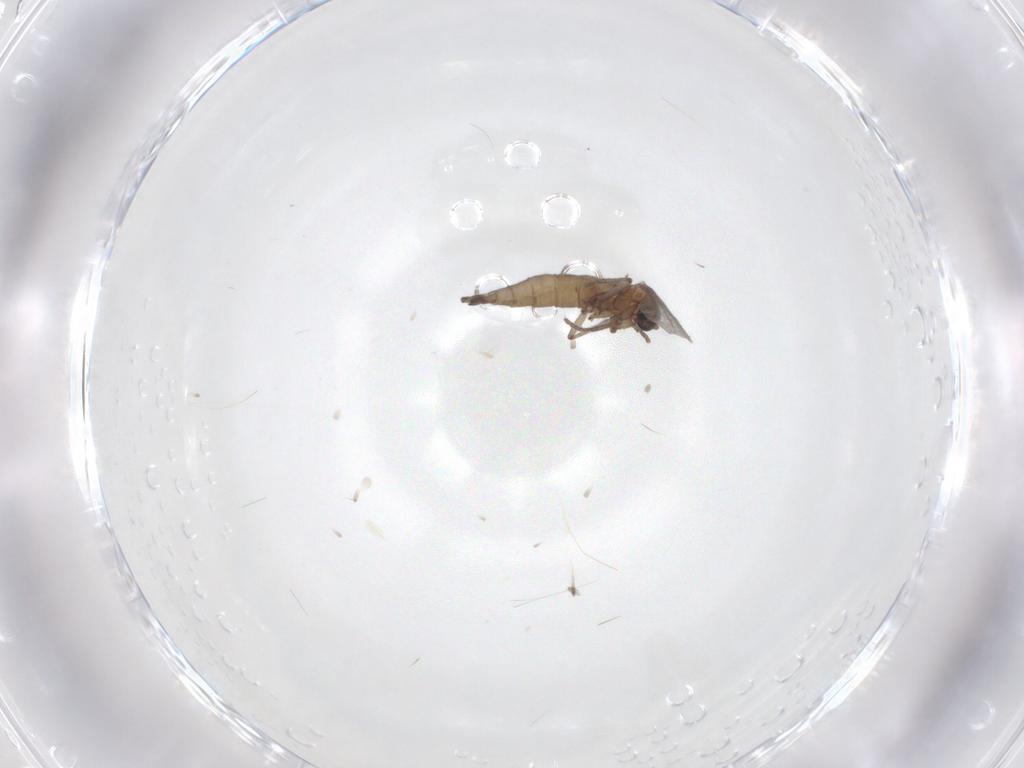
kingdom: Animalia
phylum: Arthropoda
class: Insecta
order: Diptera
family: Sciaridae
